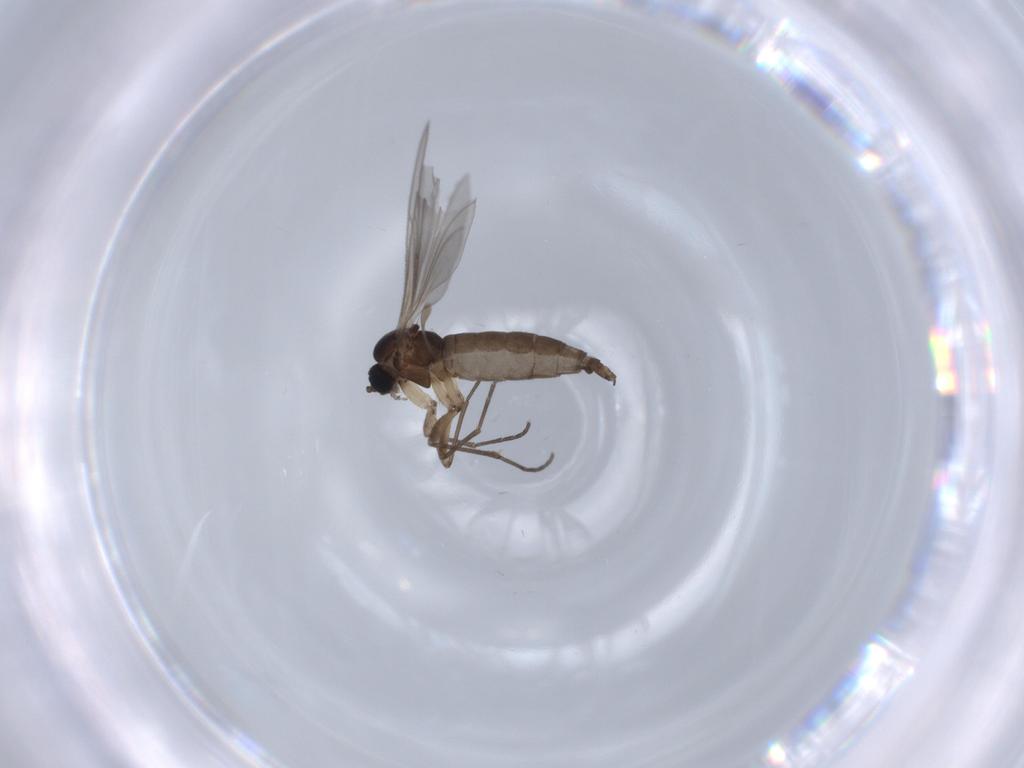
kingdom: Animalia
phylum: Arthropoda
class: Insecta
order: Diptera
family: Sciaridae
